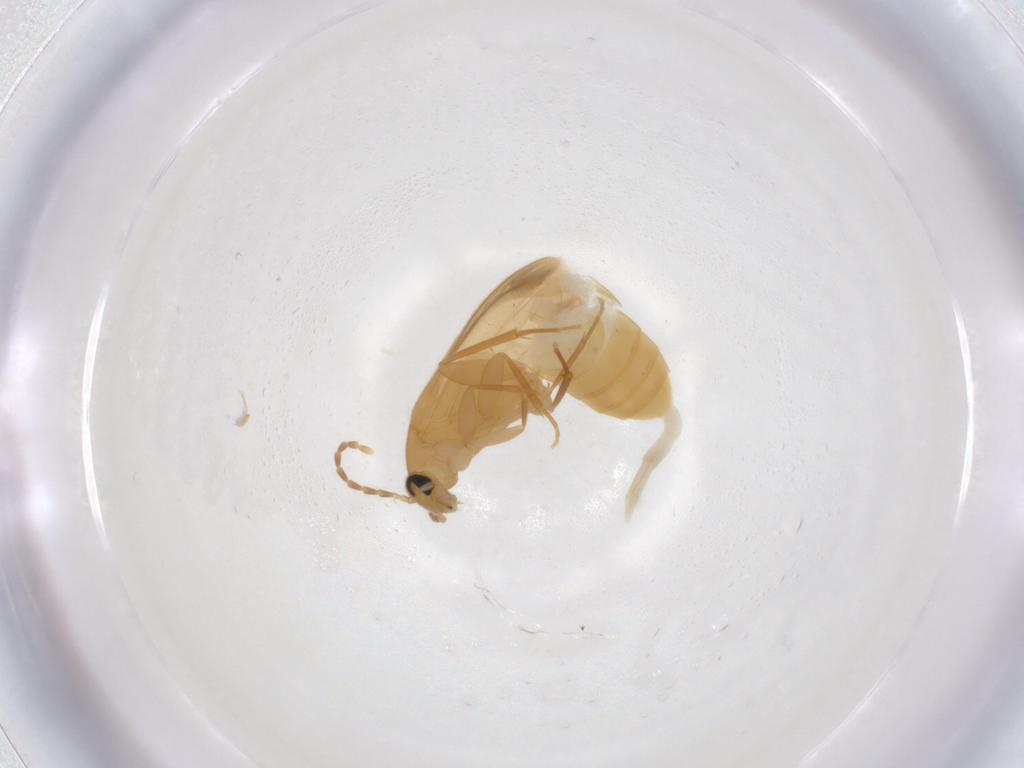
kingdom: Animalia
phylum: Arthropoda
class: Insecta
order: Coleoptera
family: Scraptiidae
